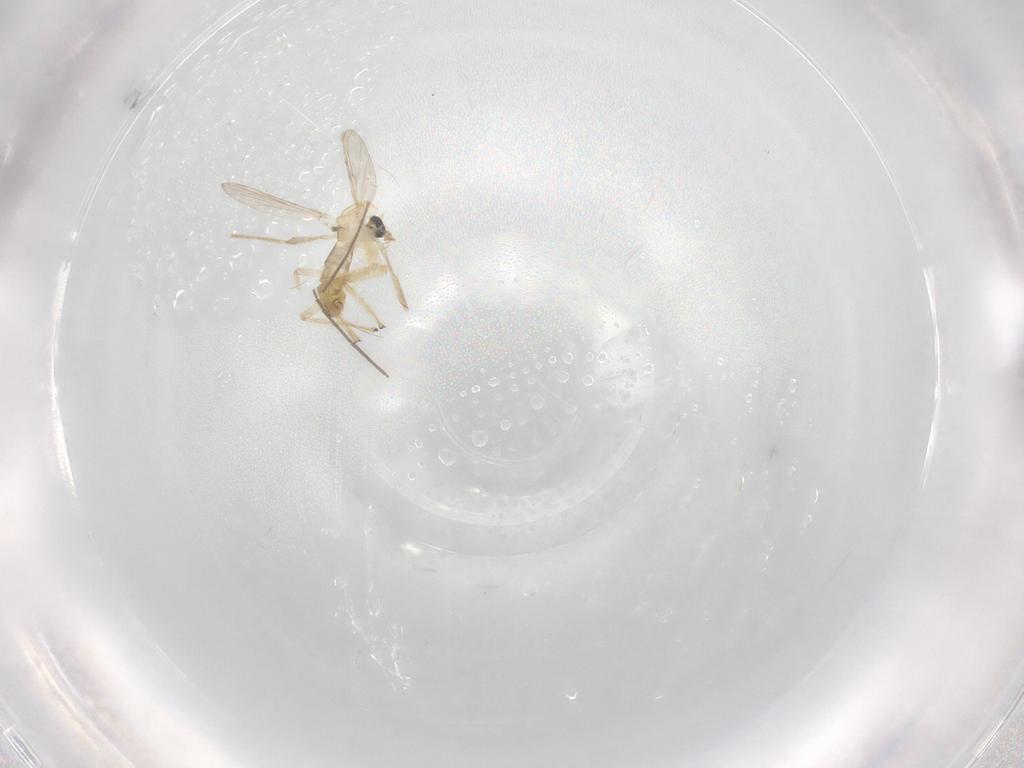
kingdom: Animalia
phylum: Arthropoda
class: Insecta
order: Diptera
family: Chironomidae
